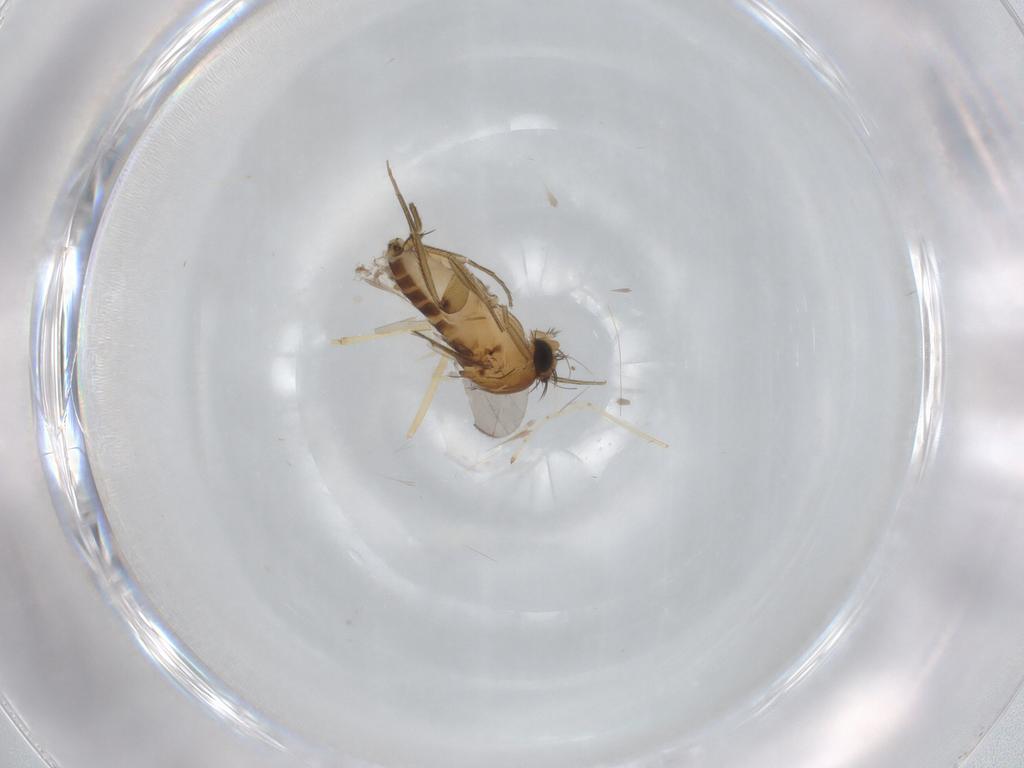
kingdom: Animalia
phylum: Arthropoda
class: Insecta
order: Diptera
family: Phoridae
